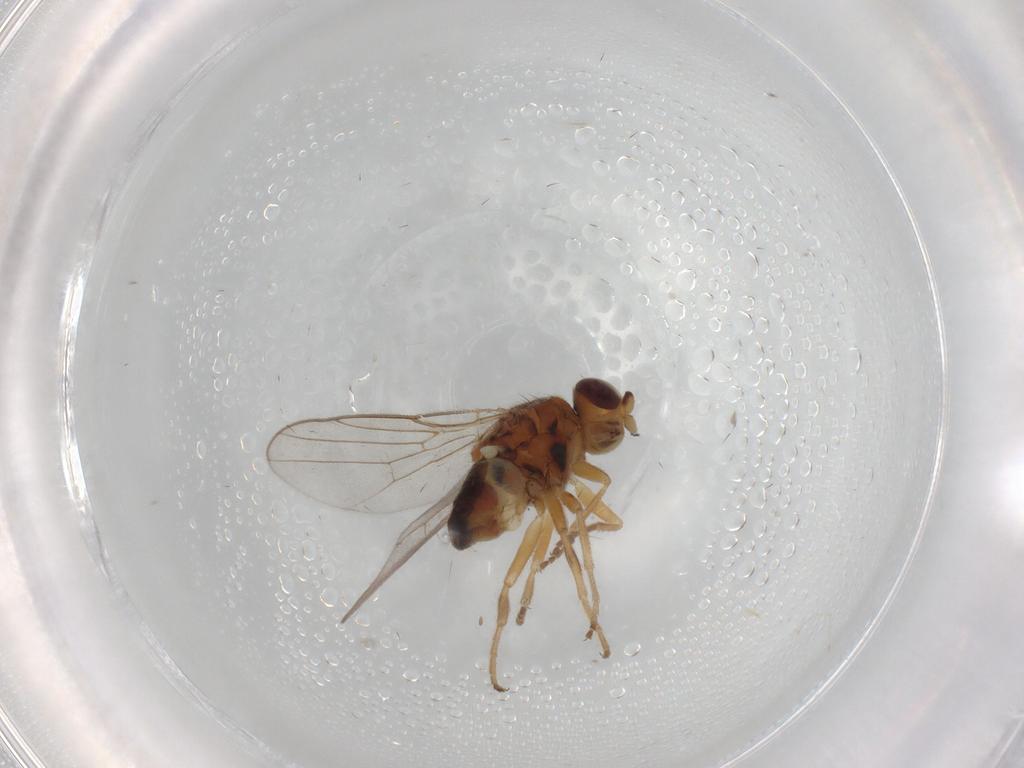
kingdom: Animalia
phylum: Arthropoda
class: Insecta
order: Diptera
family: Chloropidae
